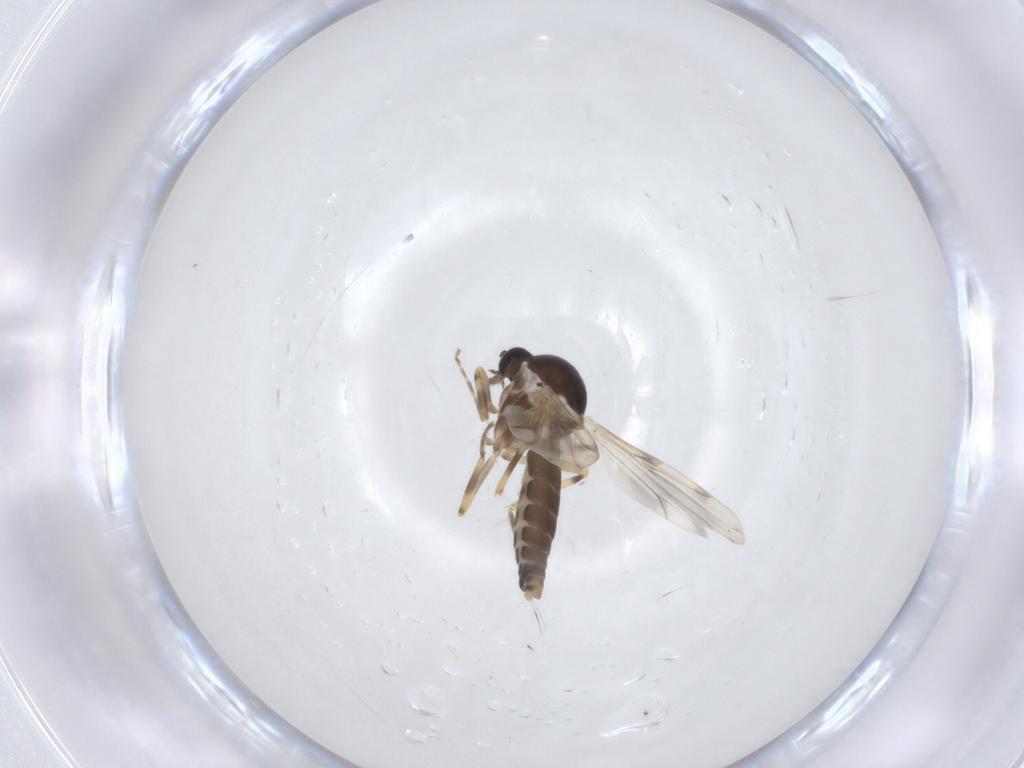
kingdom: Animalia
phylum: Arthropoda
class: Insecta
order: Diptera
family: Ceratopogonidae
